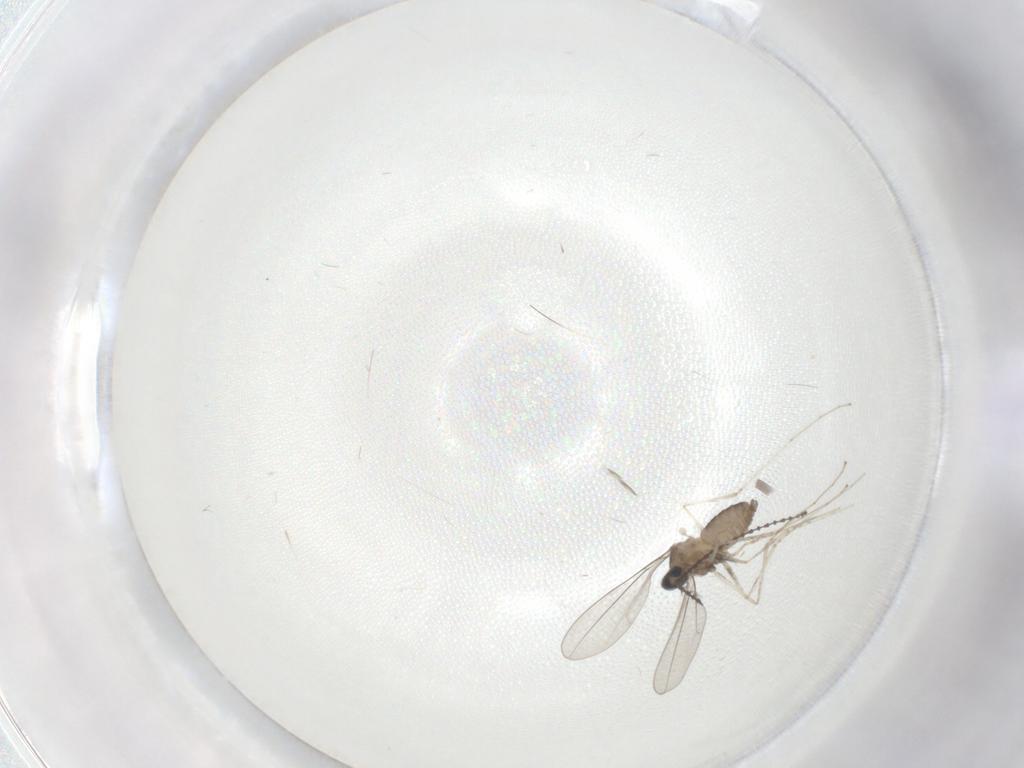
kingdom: Animalia
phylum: Arthropoda
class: Insecta
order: Diptera
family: Cecidomyiidae
